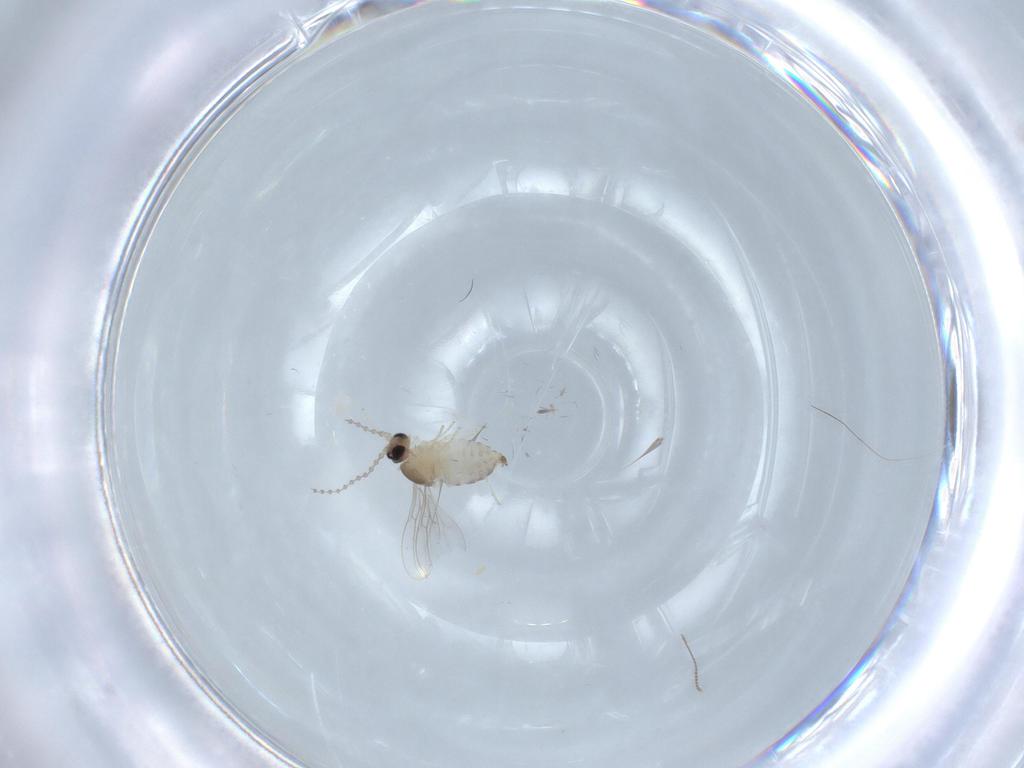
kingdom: Animalia
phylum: Arthropoda
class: Insecta
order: Diptera
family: Cecidomyiidae
